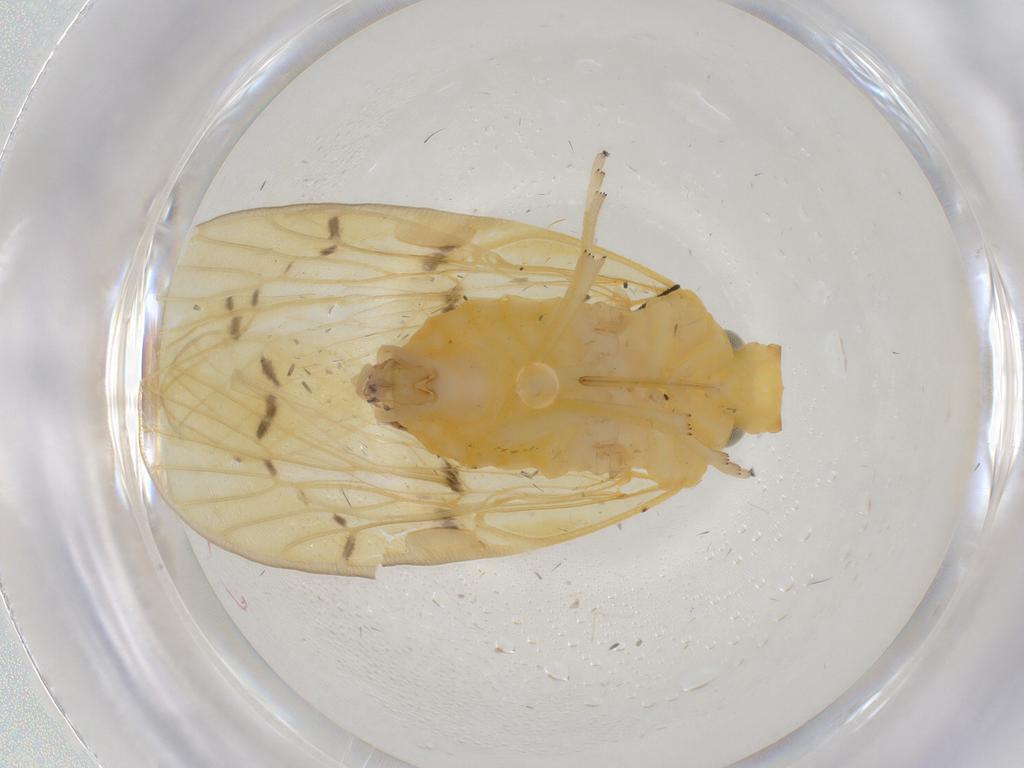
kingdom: Animalia
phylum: Arthropoda
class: Insecta
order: Hemiptera
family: Cixiidae
